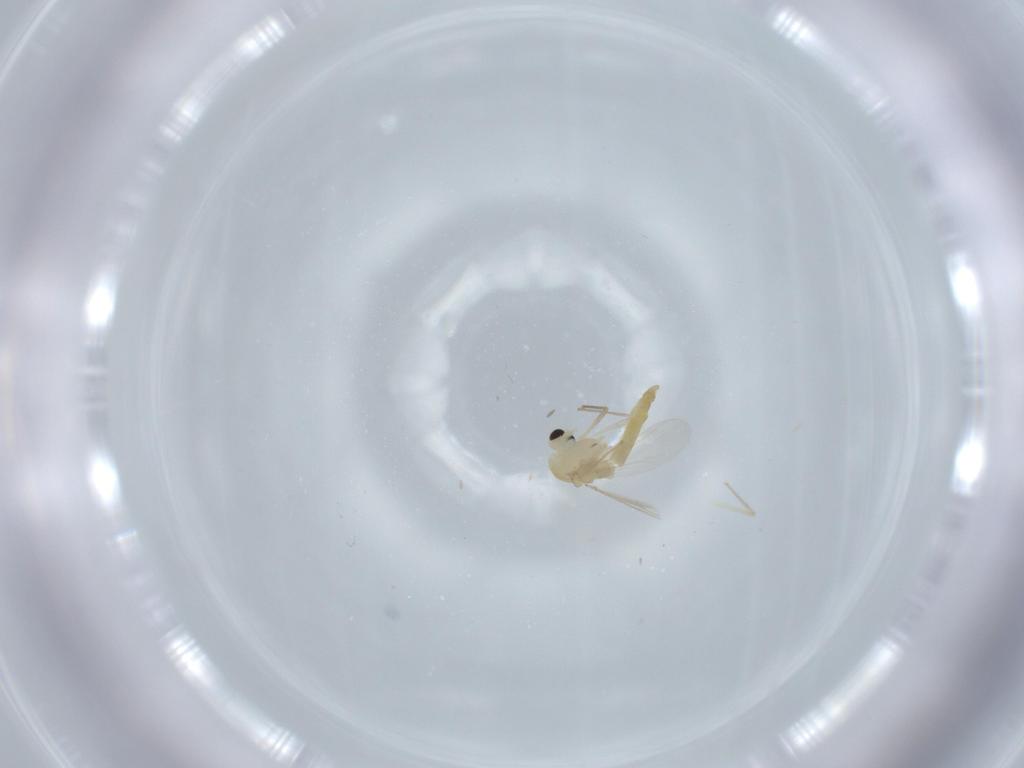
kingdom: Animalia
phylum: Arthropoda
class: Insecta
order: Diptera
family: Chironomidae
